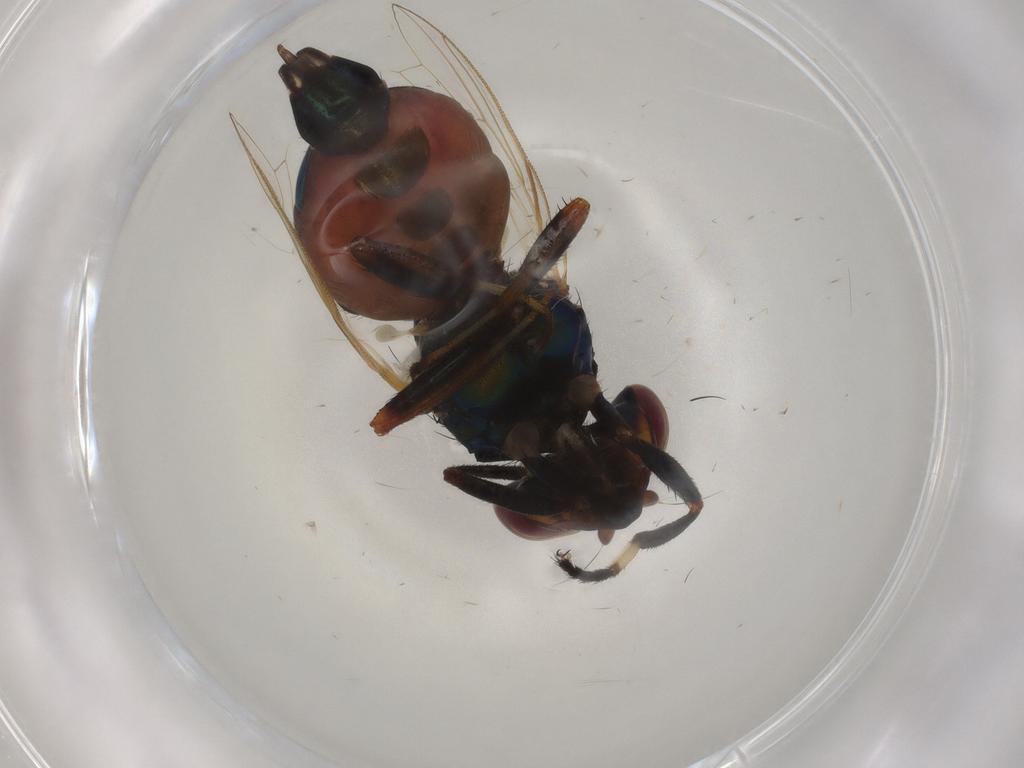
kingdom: Animalia
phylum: Arthropoda
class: Insecta
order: Diptera
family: Ulidiidae
